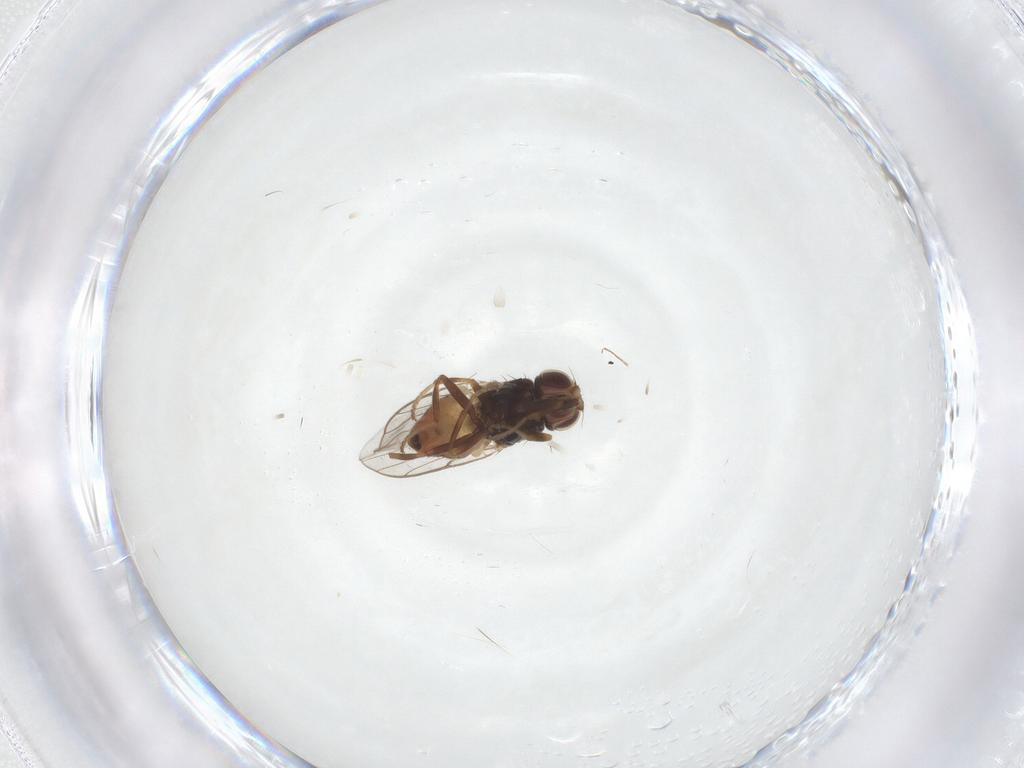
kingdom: Animalia
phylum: Arthropoda
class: Insecta
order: Diptera
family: Chloropidae
